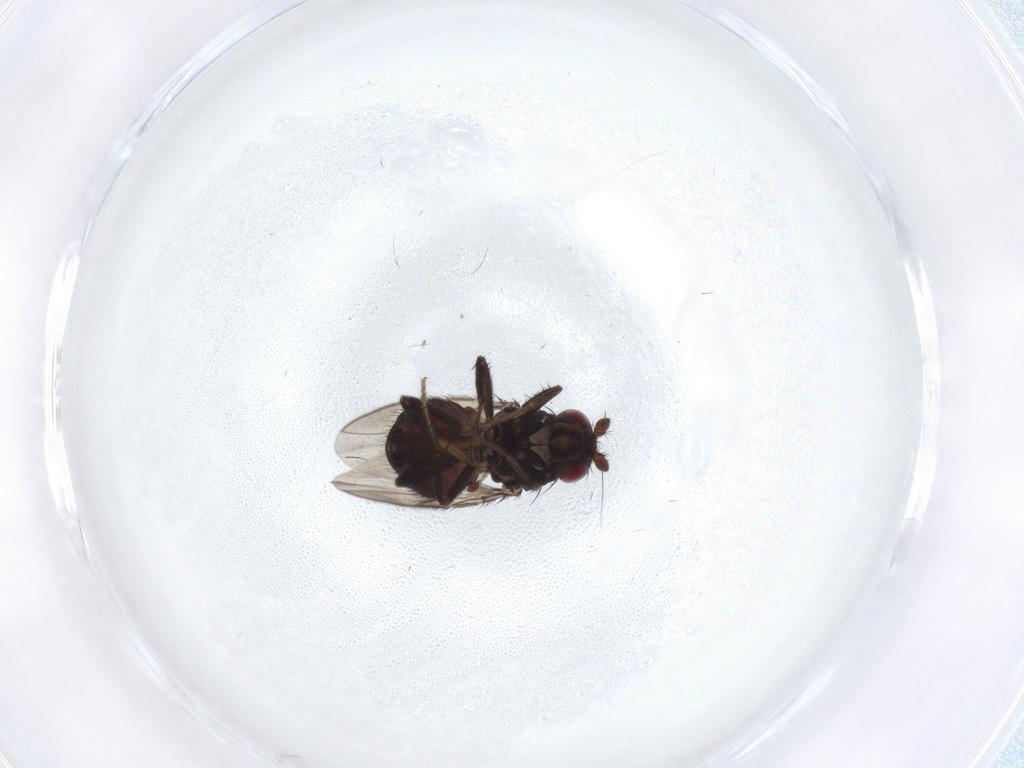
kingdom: Animalia
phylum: Arthropoda
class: Insecta
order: Diptera
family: Sphaeroceridae
